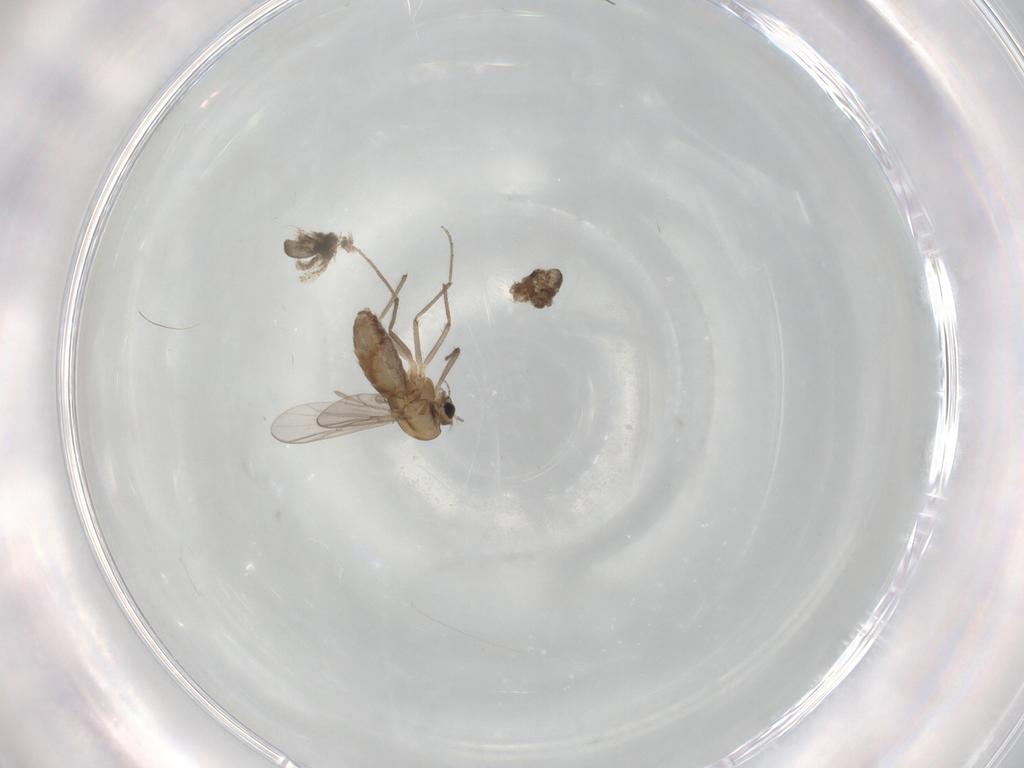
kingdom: Animalia
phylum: Arthropoda
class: Insecta
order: Diptera
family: Chironomidae
